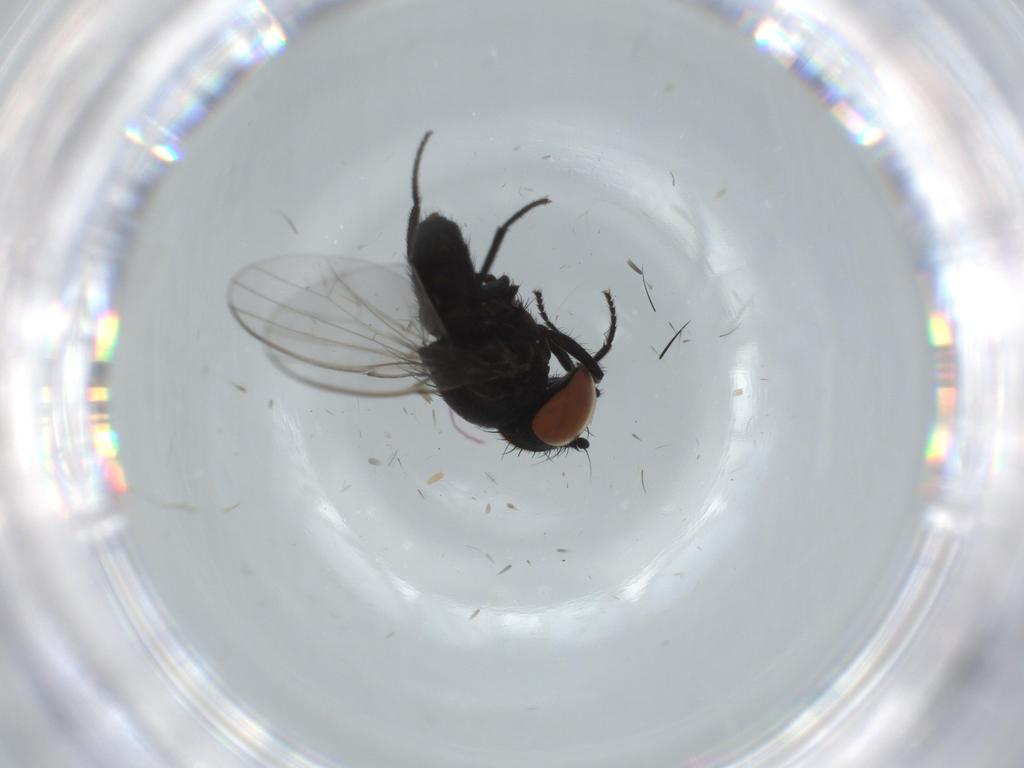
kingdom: Animalia
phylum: Arthropoda
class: Insecta
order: Diptera
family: Milichiidae
